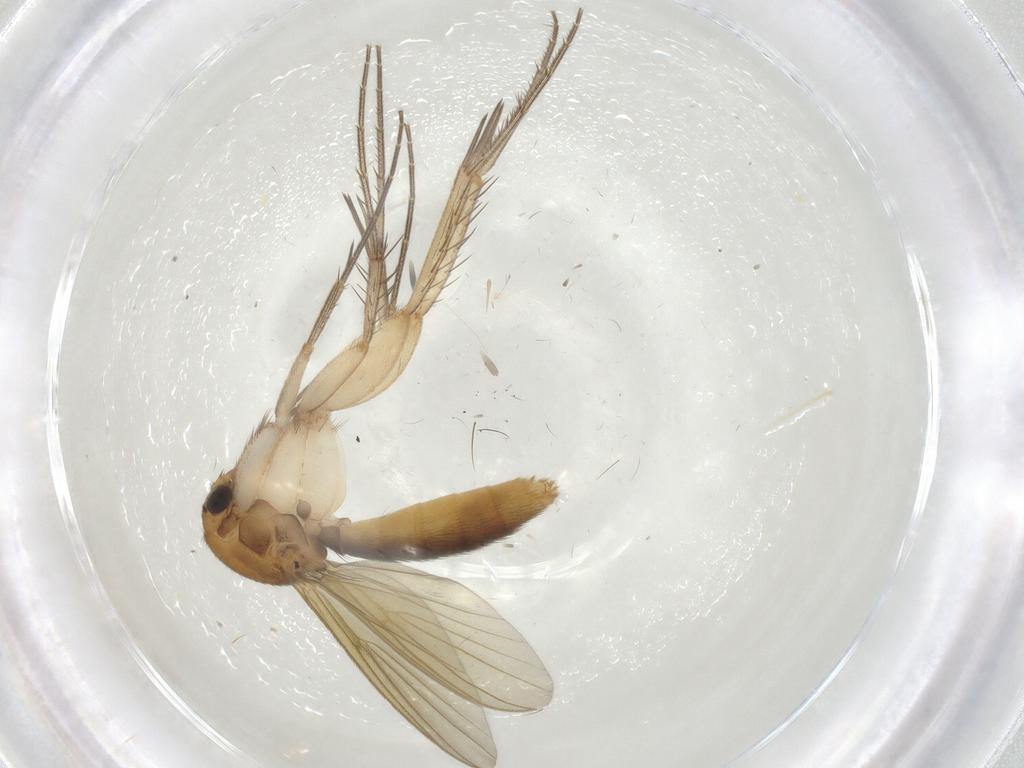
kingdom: Animalia
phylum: Arthropoda
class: Insecta
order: Diptera
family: Mycetophilidae
